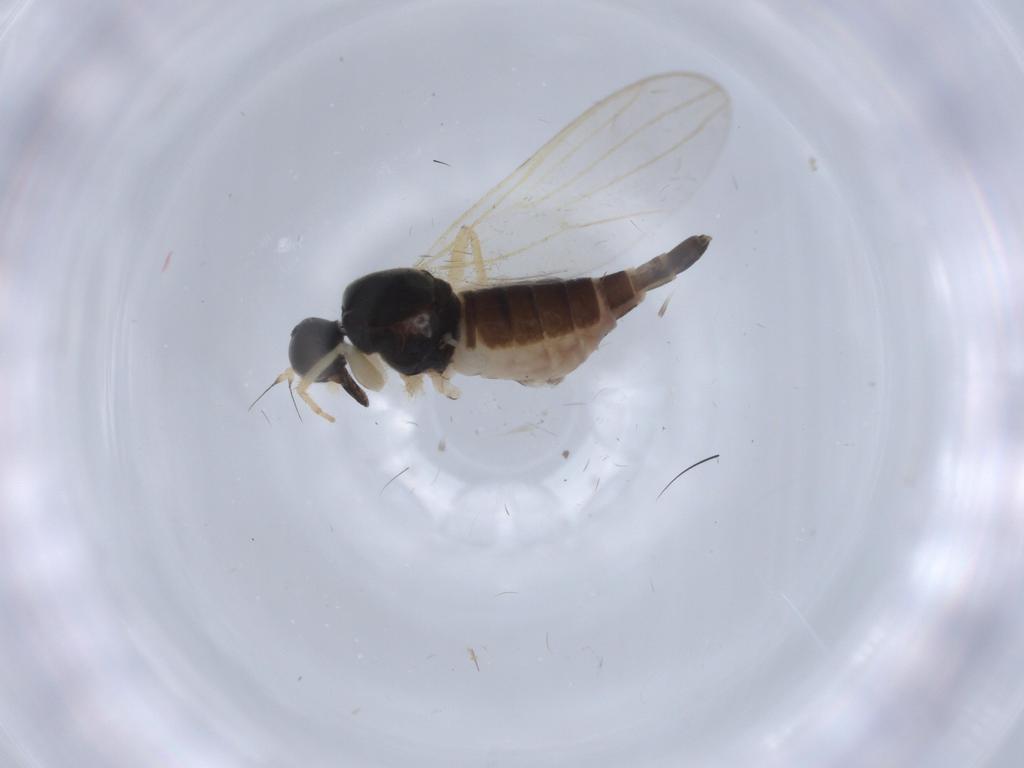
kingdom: Animalia
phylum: Arthropoda
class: Insecta
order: Diptera
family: Hybotidae
